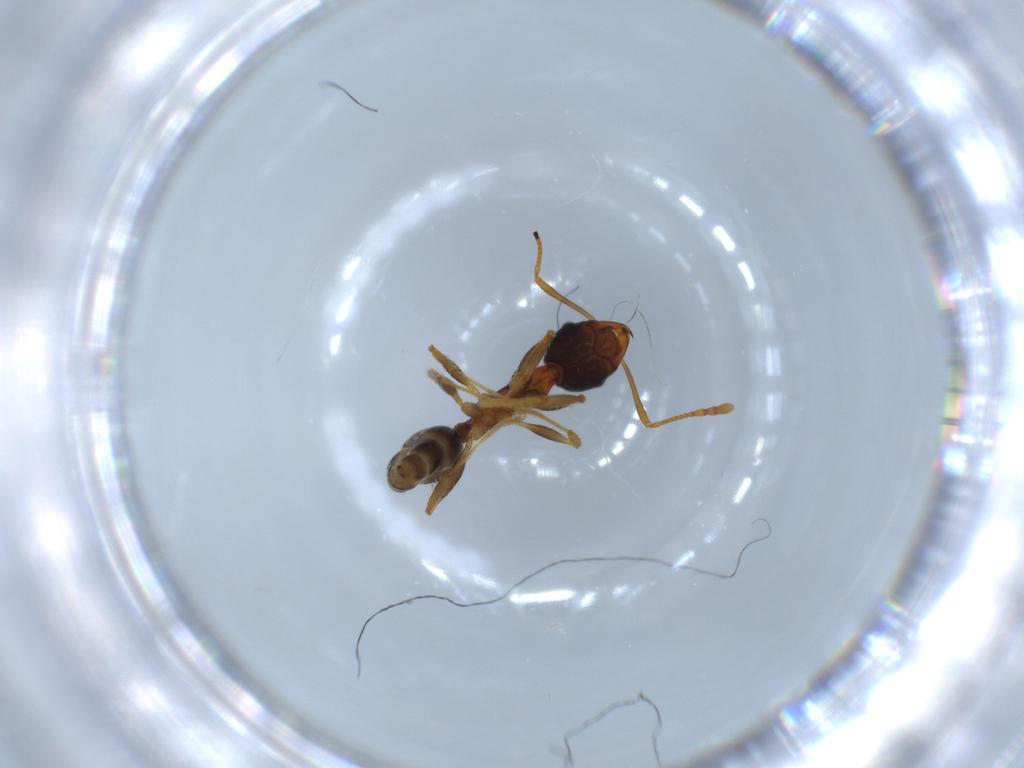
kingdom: Animalia
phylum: Arthropoda
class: Insecta
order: Hymenoptera
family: Formicidae
